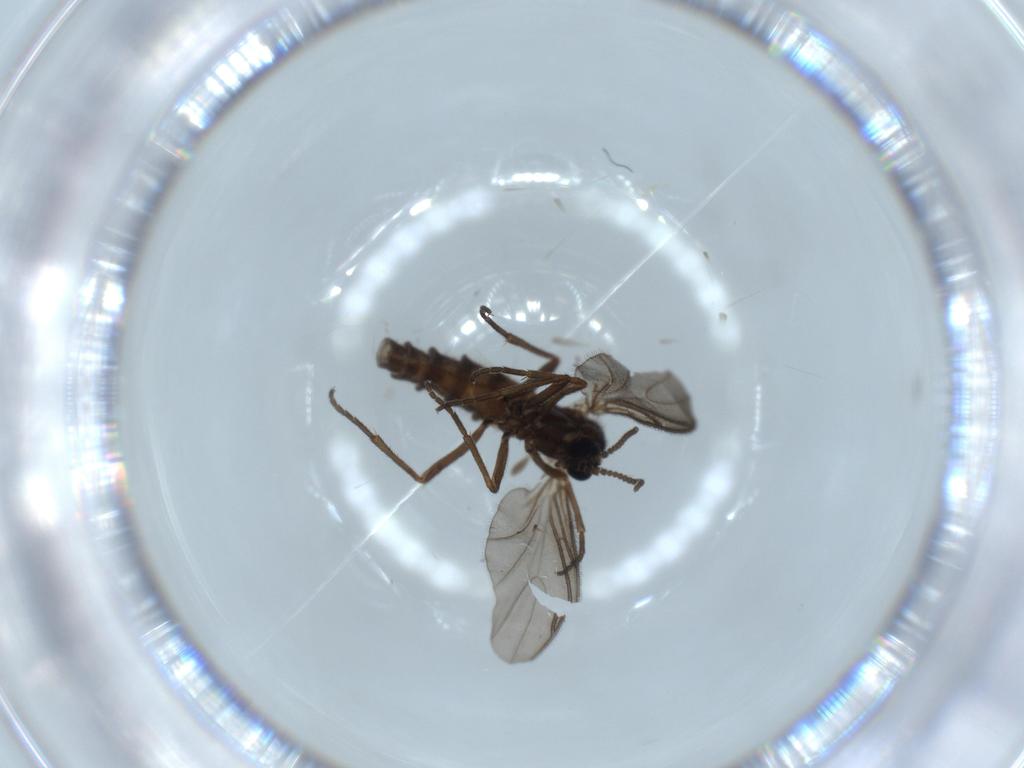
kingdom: Animalia
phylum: Arthropoda
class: Insecta
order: Diptera
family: Sciaridae
